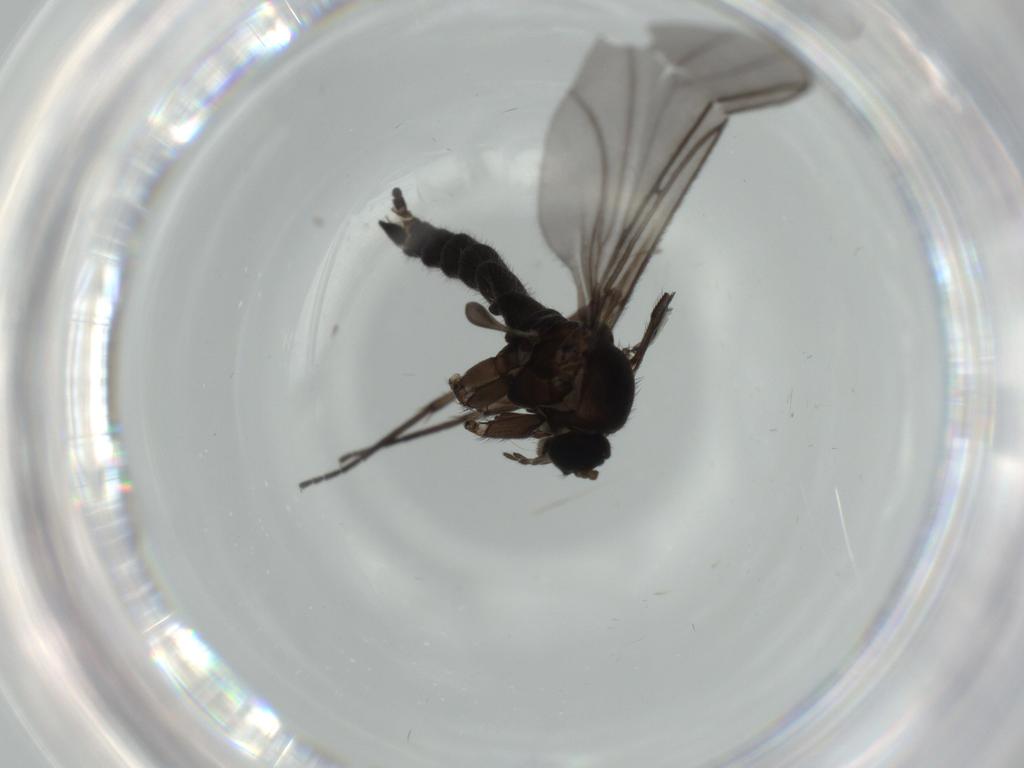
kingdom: Animalia
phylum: Arthropoda
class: Insecta
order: Diptera
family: Sciaridae
